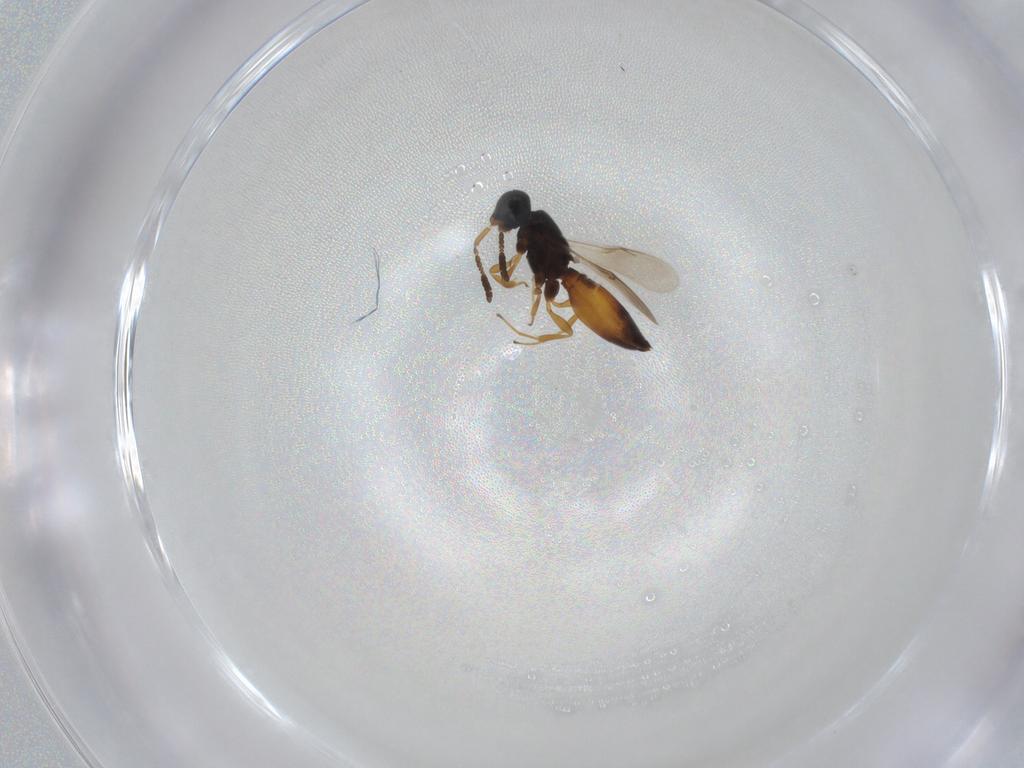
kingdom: Animalia
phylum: Arthropoda
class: Insecta
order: Hymenoptera
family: Scelionidae
